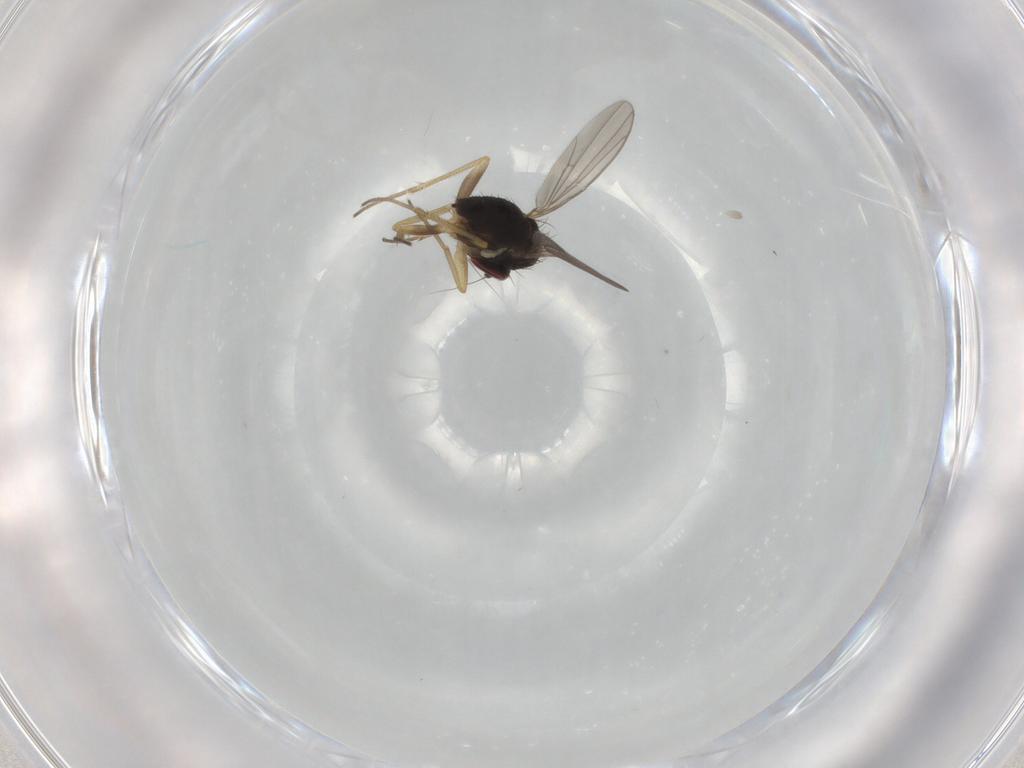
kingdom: Animalia
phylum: Arthropoda
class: Insecta
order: Diptera
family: Dolichopodidae
